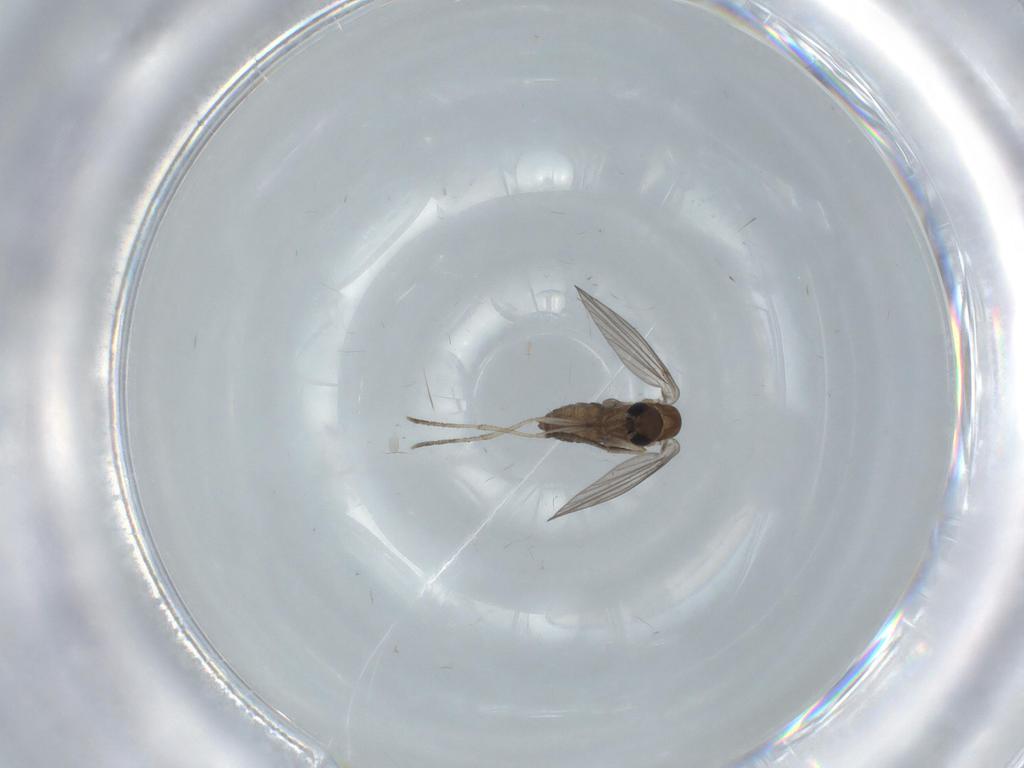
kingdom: Animalia
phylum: Arthropoda
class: Insecta
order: Diptera
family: Psychodidae
